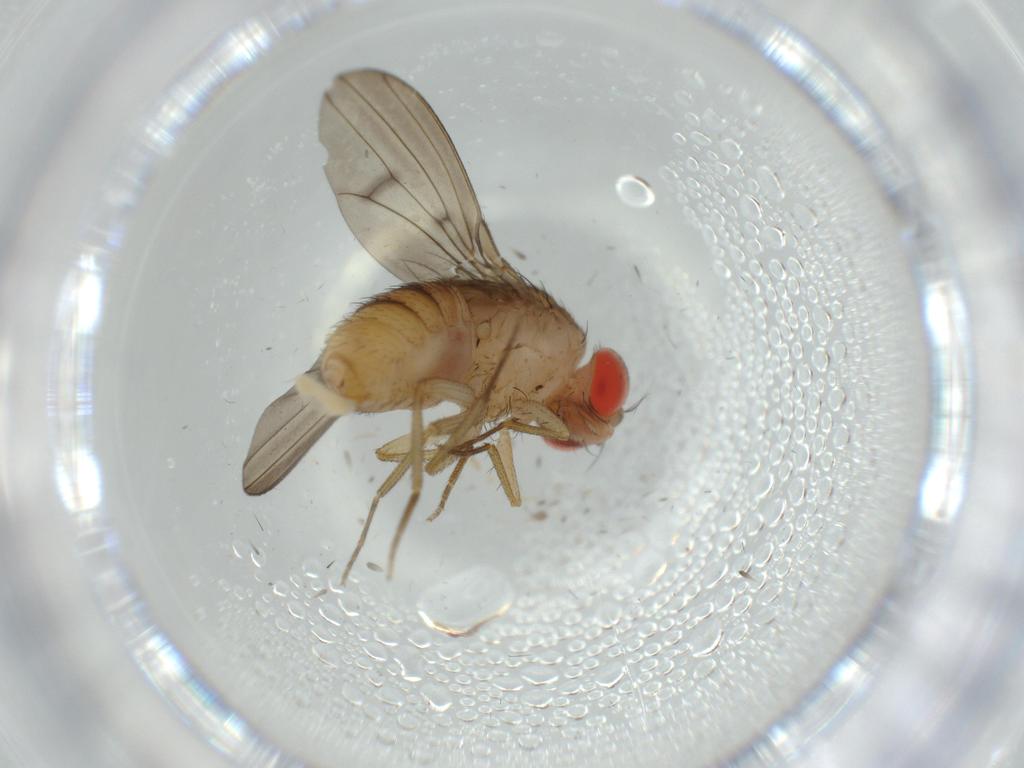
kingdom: Animalia
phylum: Arthropoda
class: Insecta
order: Diptera
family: Drosophilidae
